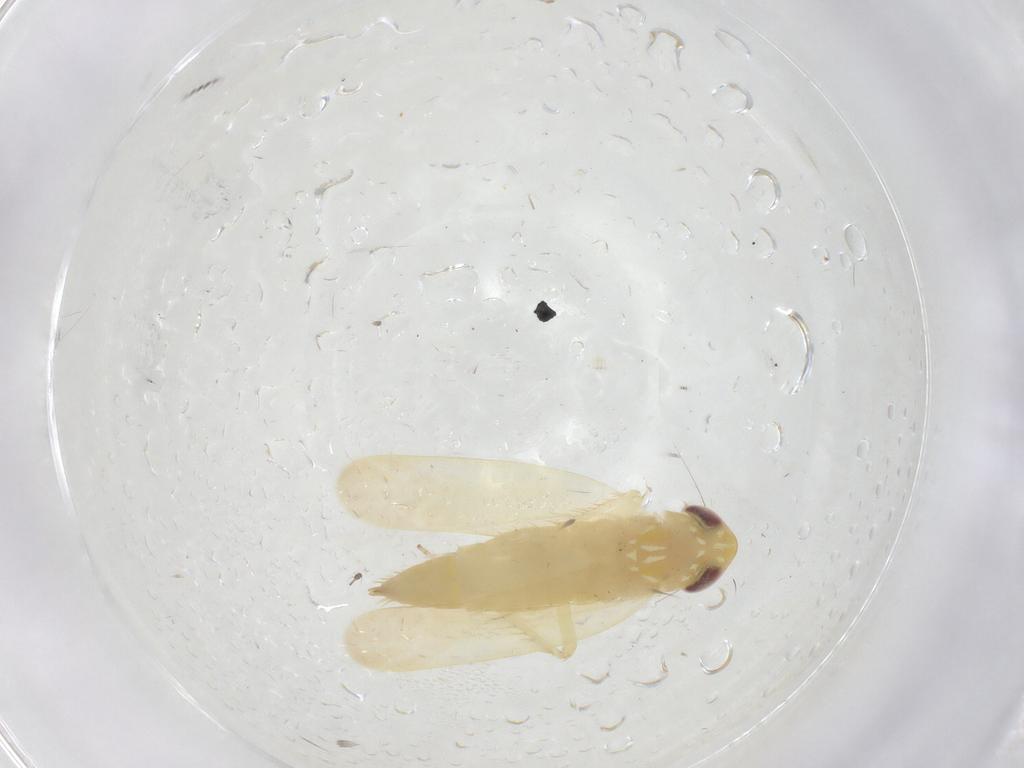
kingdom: Animalia
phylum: Arthropoda
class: Insecta
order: Hemiptera
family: Cicadellidae
